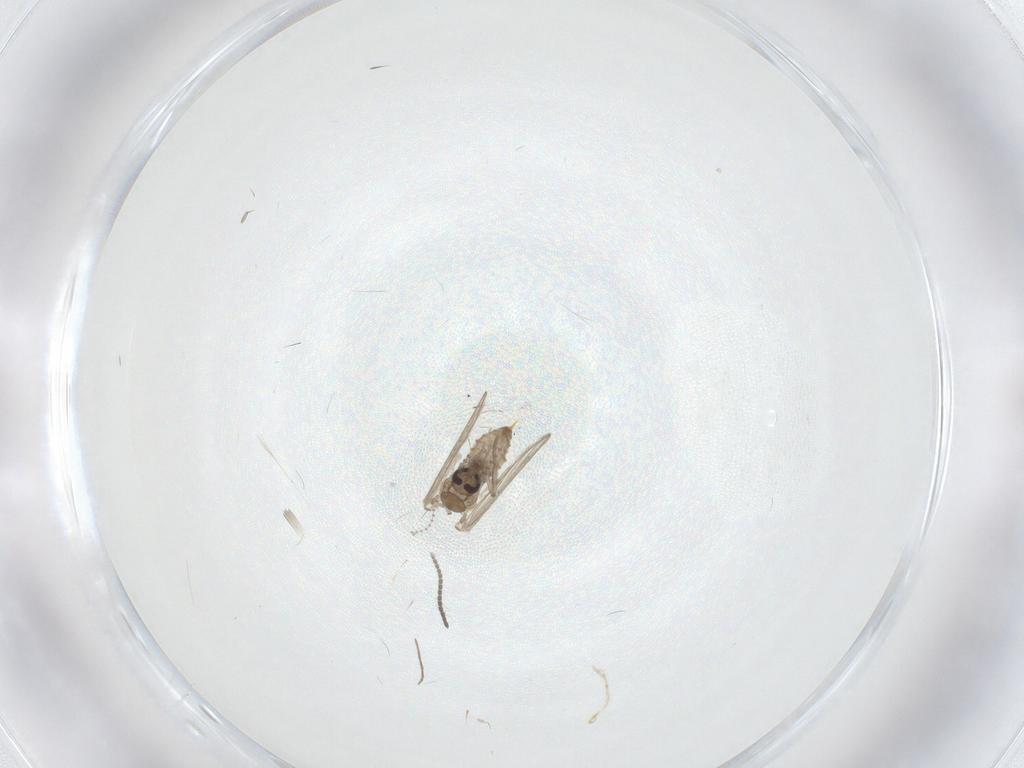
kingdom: Animalia
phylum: Arthropoda
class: Insecta
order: Diptera
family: Psychodidae
